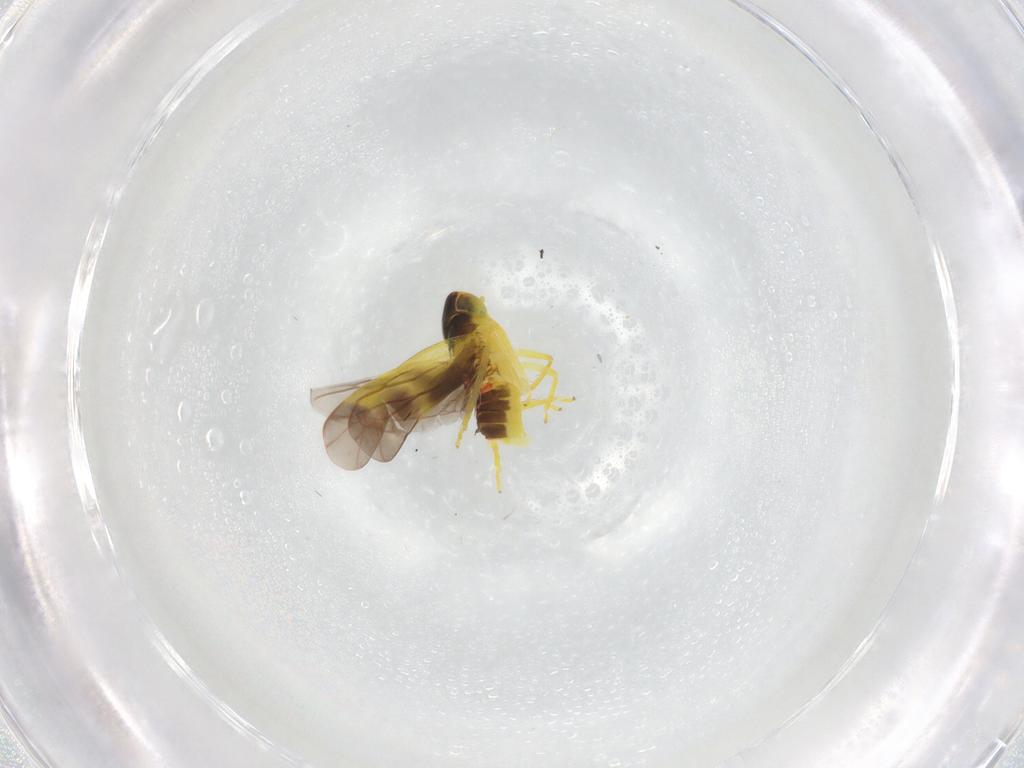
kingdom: Animalia
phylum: Arthropoda
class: Insecta
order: Hemiptera
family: Cicadellidae
